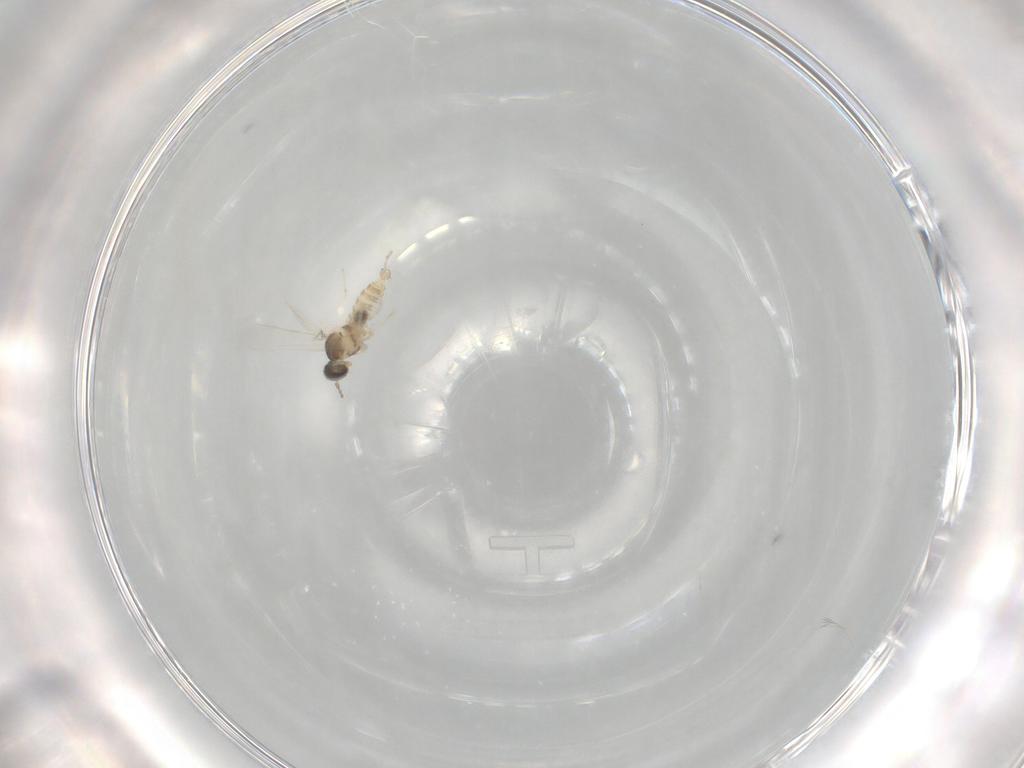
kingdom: Animalia
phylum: Arthropoda
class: Insecta
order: Diptera
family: Cecidomyiidae
